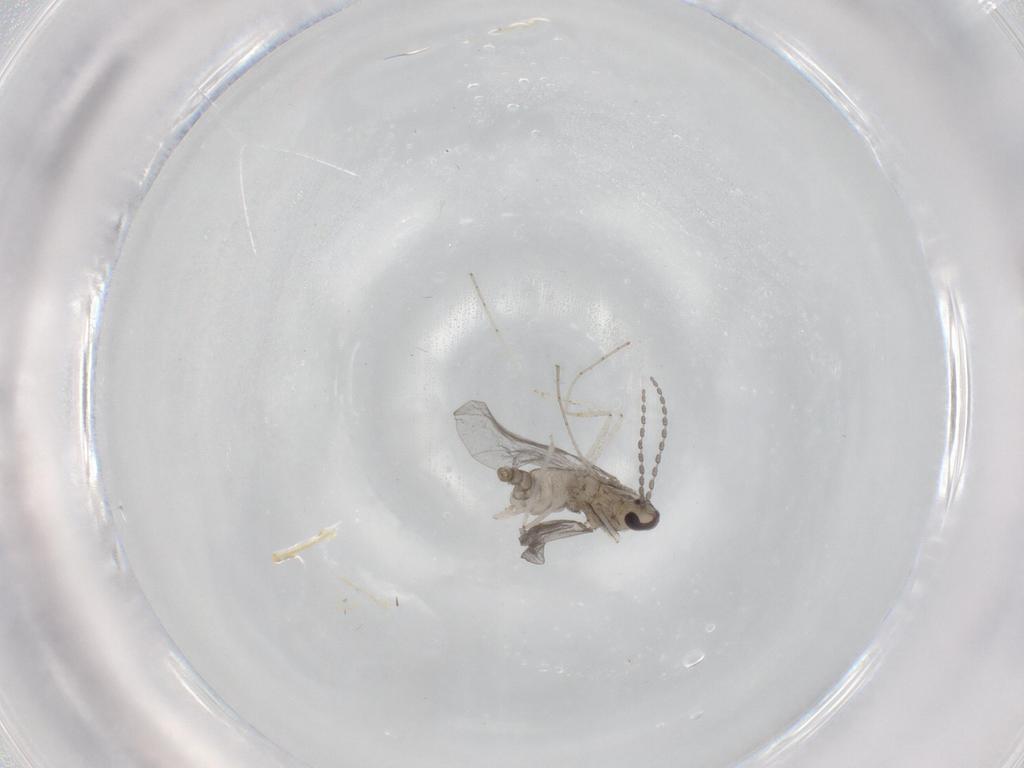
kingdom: Animalia
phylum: Arthropoda
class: Insecta
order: Diptera
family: Cecidomyiidae
